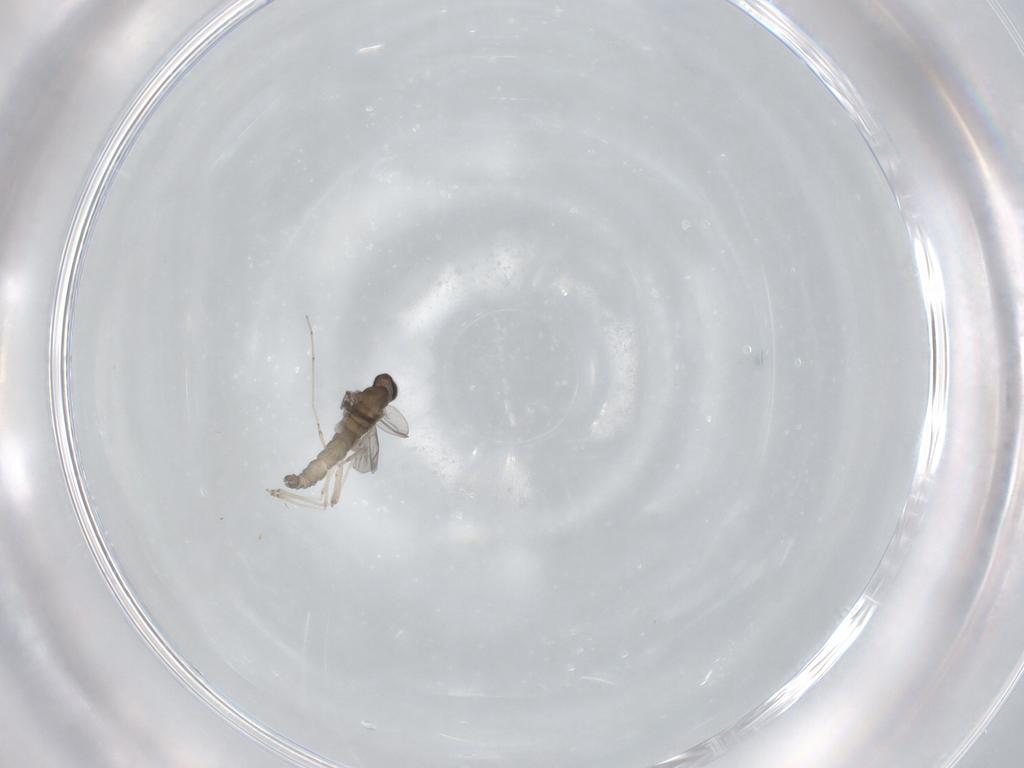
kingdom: Animalia
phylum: Arthropoda
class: Insecta
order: Diptera
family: Cecidomyiidae
